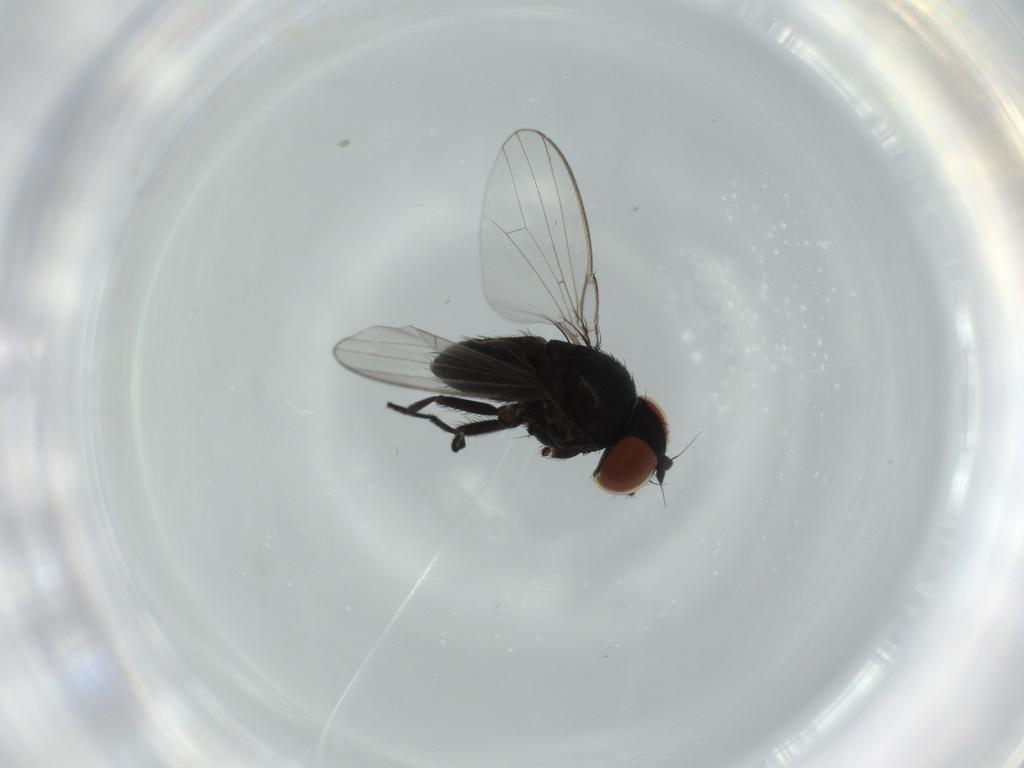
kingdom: Animalia
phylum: Arthropoda
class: Insecta
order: Diptera
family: Milichiidae
